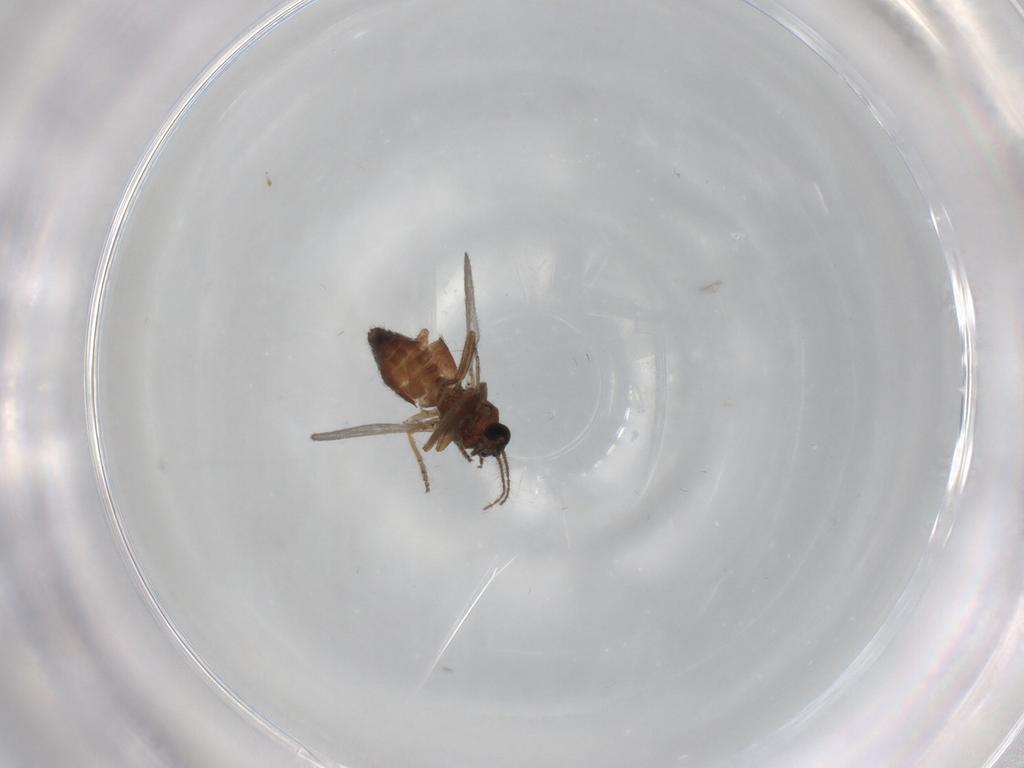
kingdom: Animalia
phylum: Arthropoda
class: Insecta
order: Diptera
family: Ceratopogonidae
